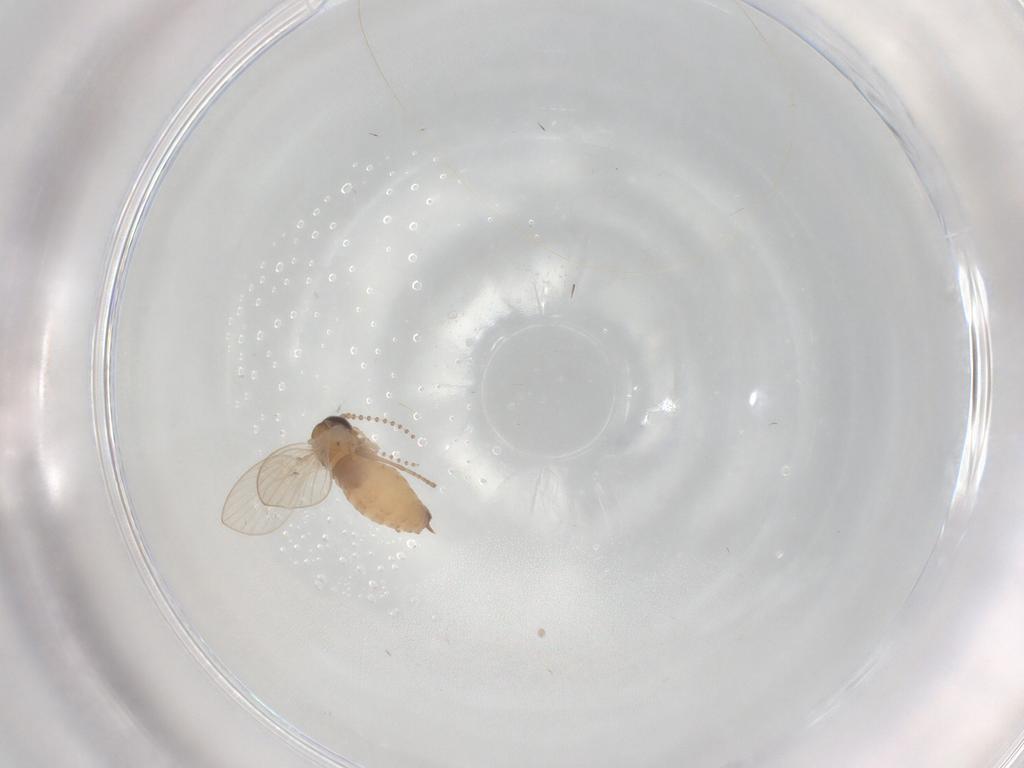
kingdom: Animalia
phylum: Arthropoda
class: Insecta
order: Diptera
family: Psychodidae
